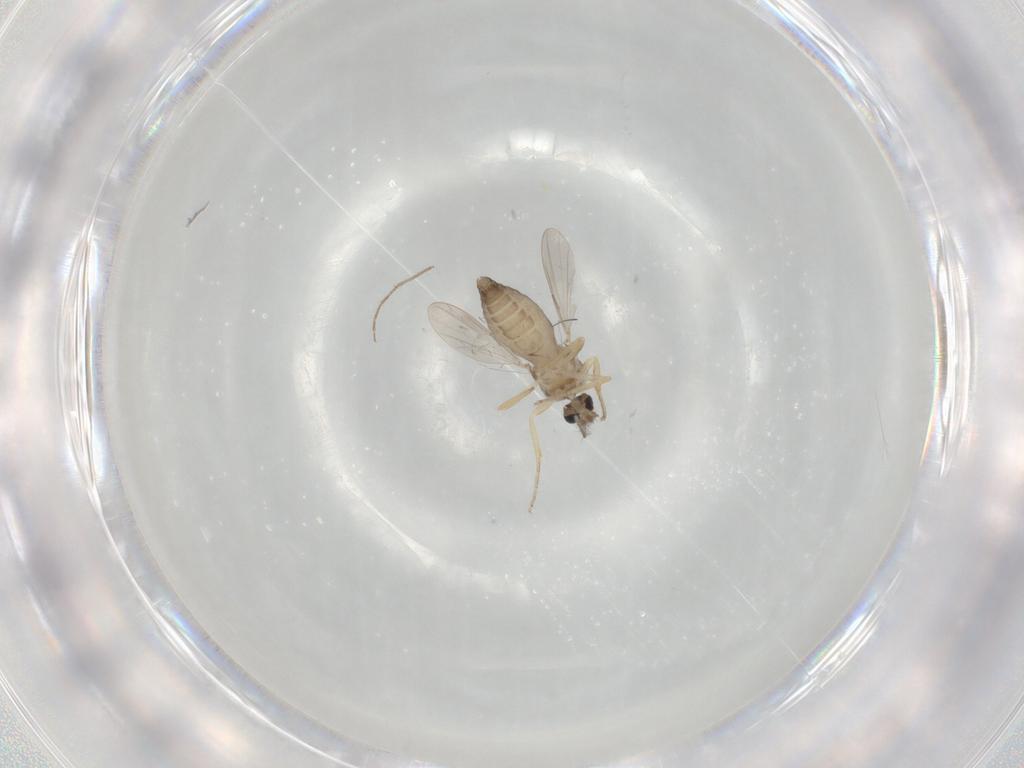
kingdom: Animalia
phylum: Arthropoda
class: Insecta
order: Diptera
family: Ceratopogonidae
